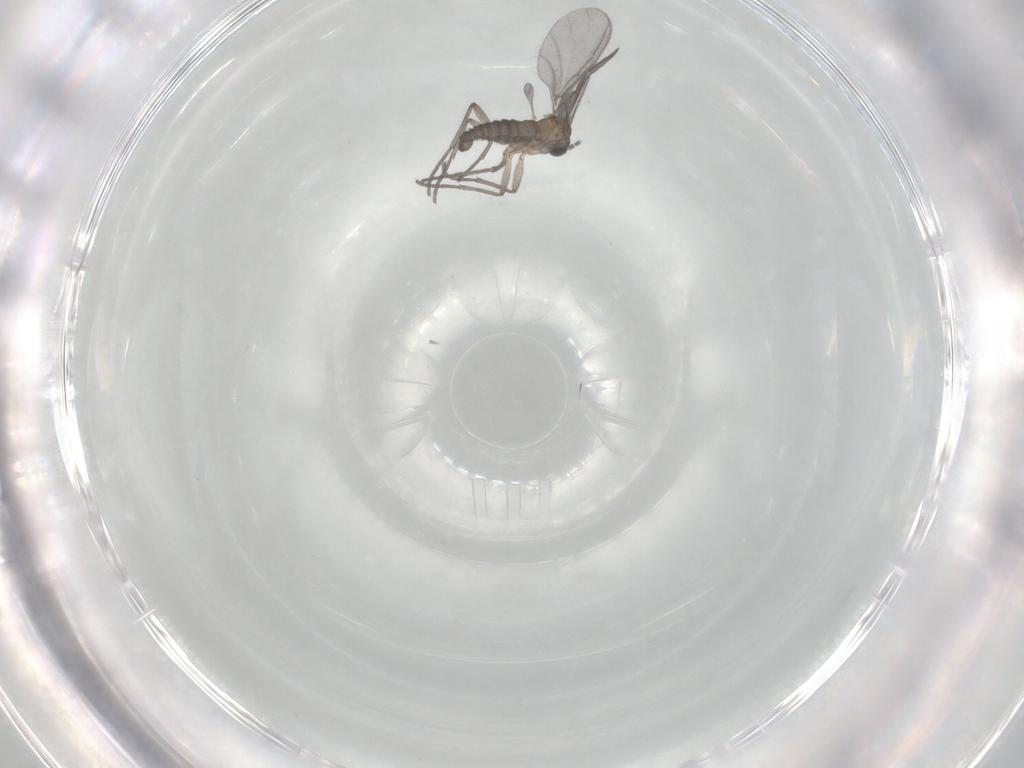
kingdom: Animalia
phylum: Arthropoda
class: Insecta
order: Diptera
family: Sciaridae
